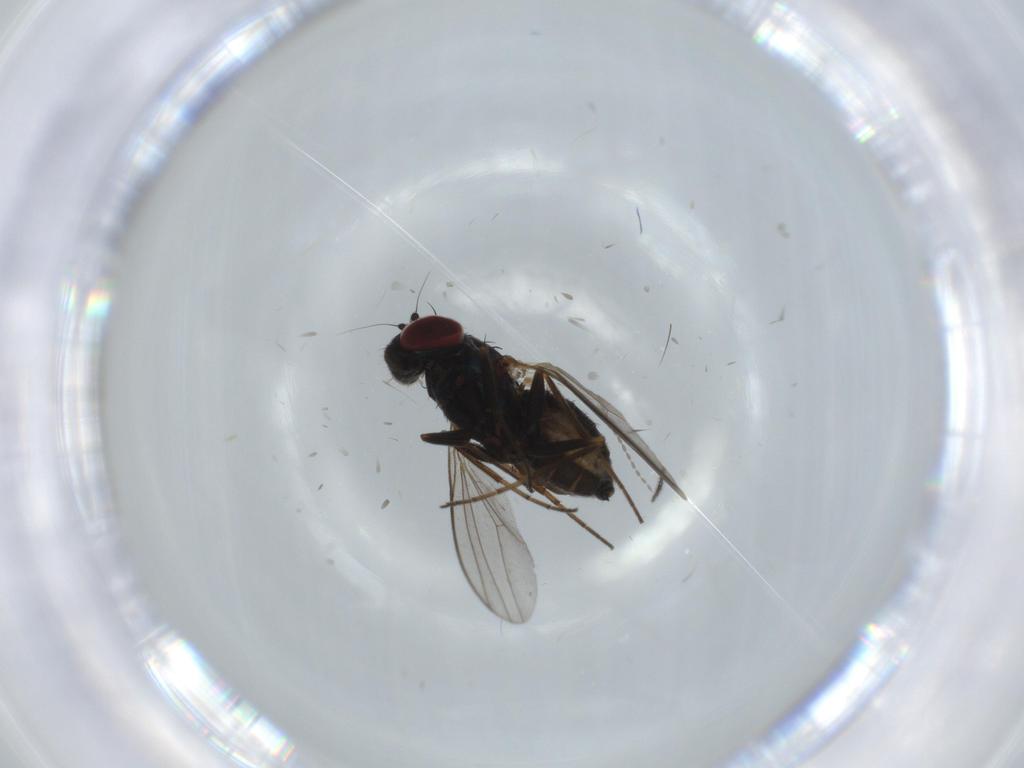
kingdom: Animalia
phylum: Arthropoda
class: Insecta
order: Diptera
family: Dolichopodidae
